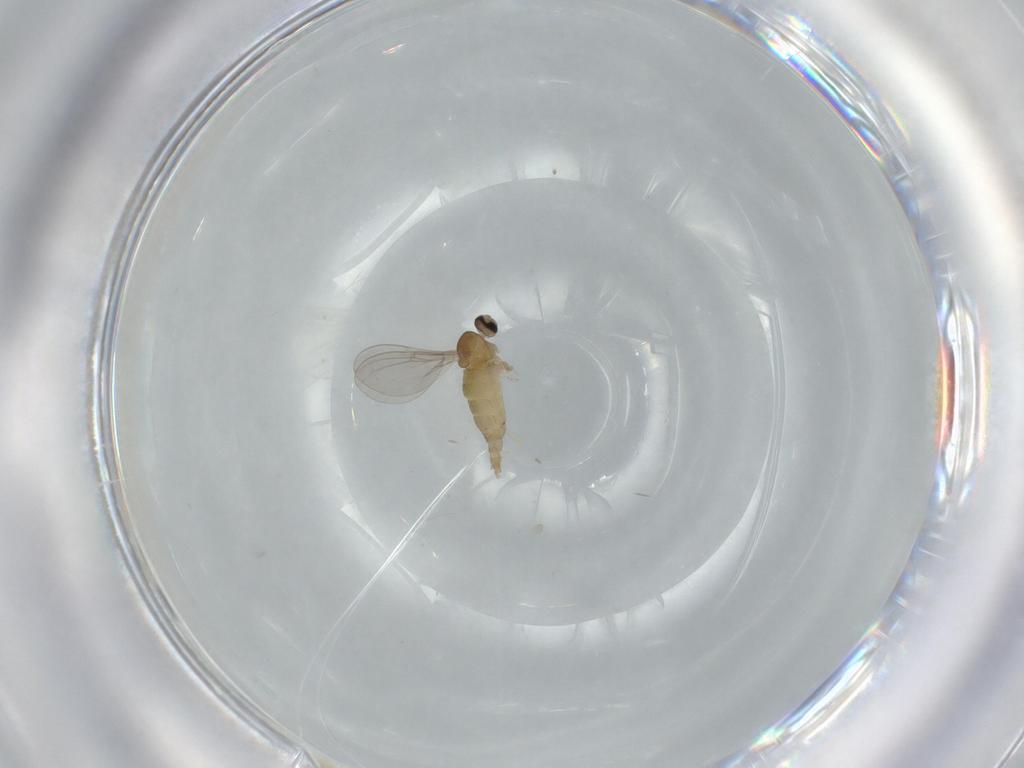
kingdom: Animalia
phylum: Arthropoda
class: Insecta
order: Diptera
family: Cecidomyiidae
